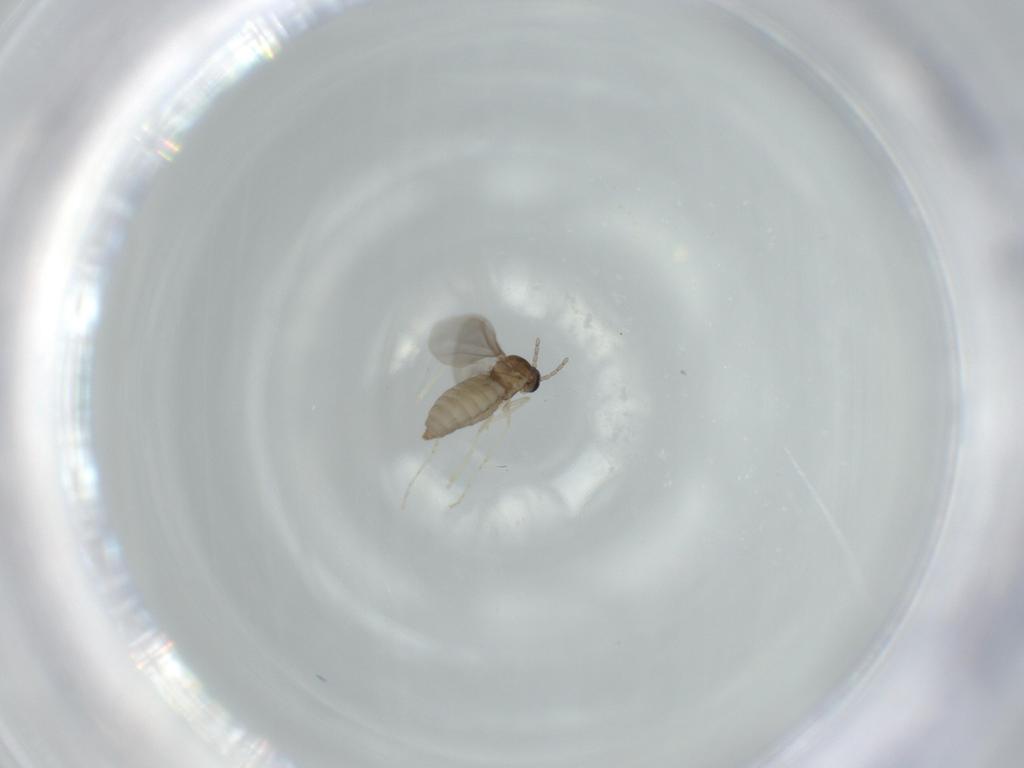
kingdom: Animalia
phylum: Arthropoda
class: Insecta
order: Diptera
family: Cecidomyiidae
